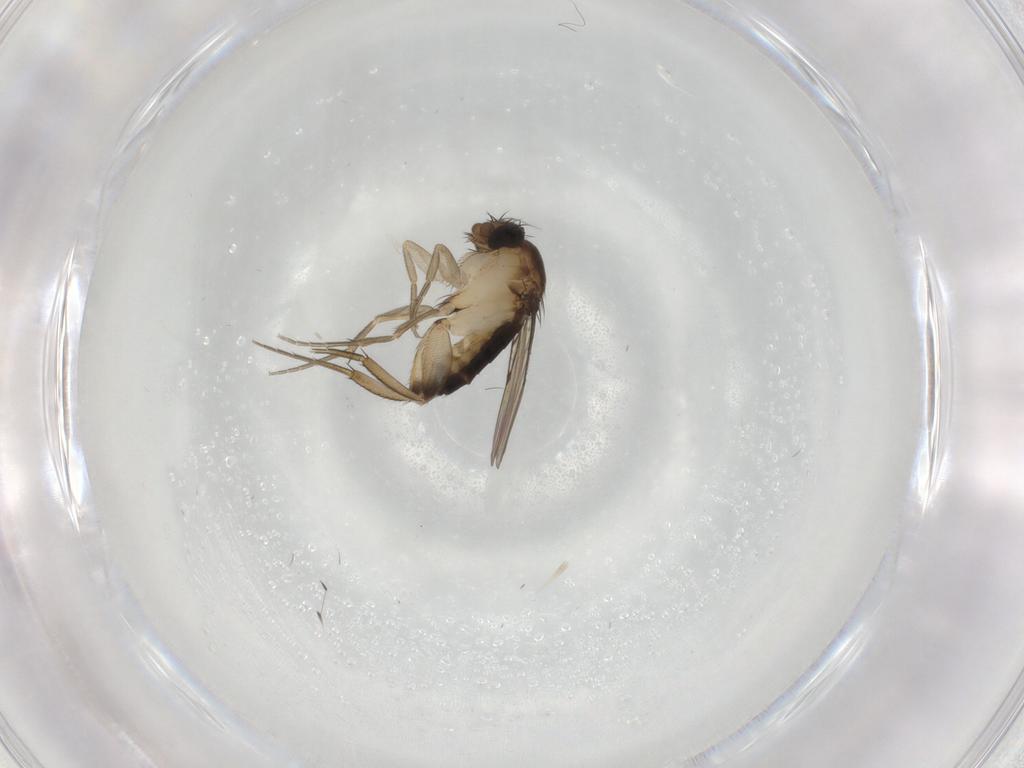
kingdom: Animalia
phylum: Arthropoda
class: Insecta
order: Diptera
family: Phoridae
